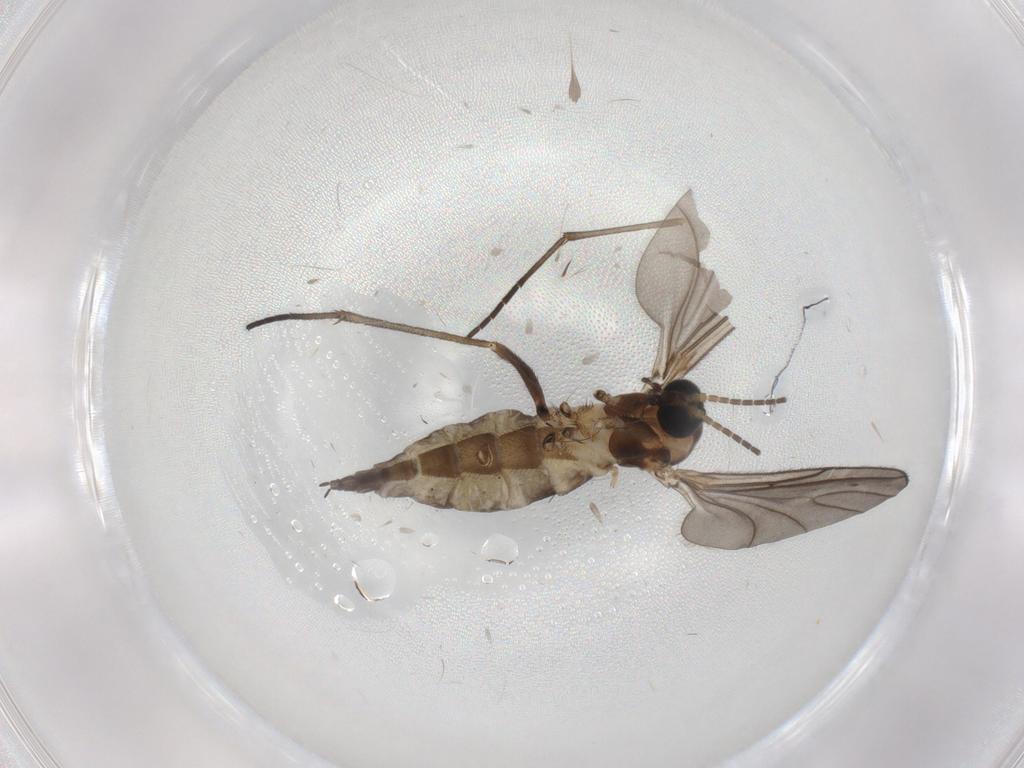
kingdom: Animalia
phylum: Arthropoda
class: Insecta
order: Diptera
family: Sciaridae
